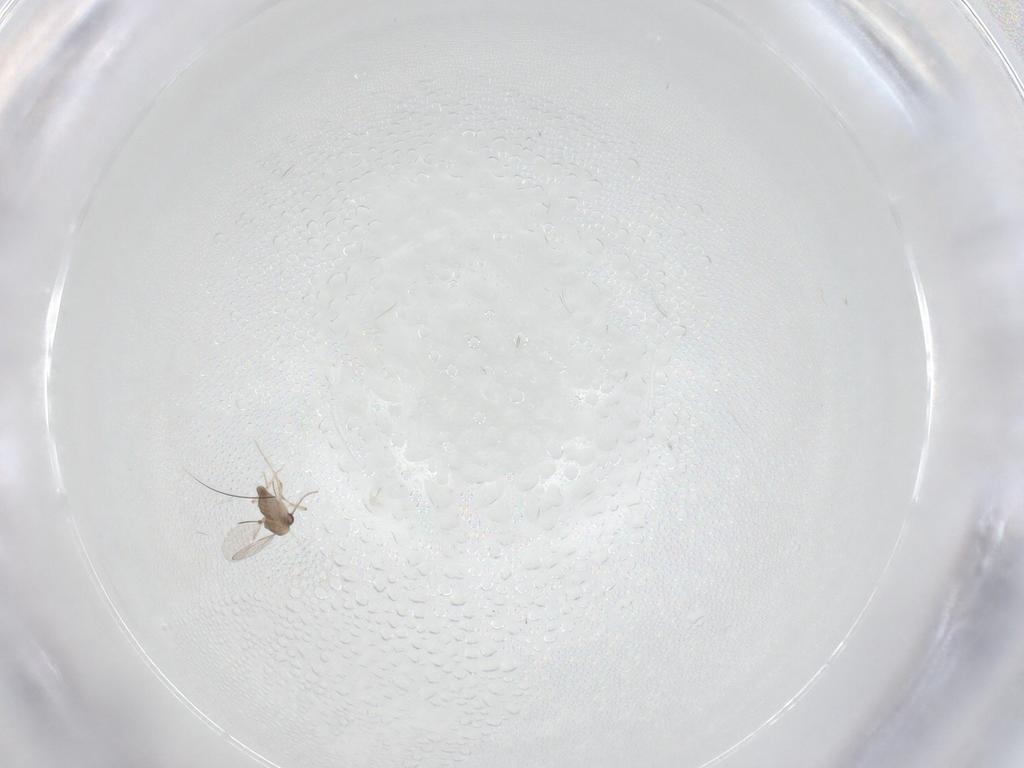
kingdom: Animalia
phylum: Arthropoda
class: Insecta
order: Diptera
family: Ceratopogonidae
